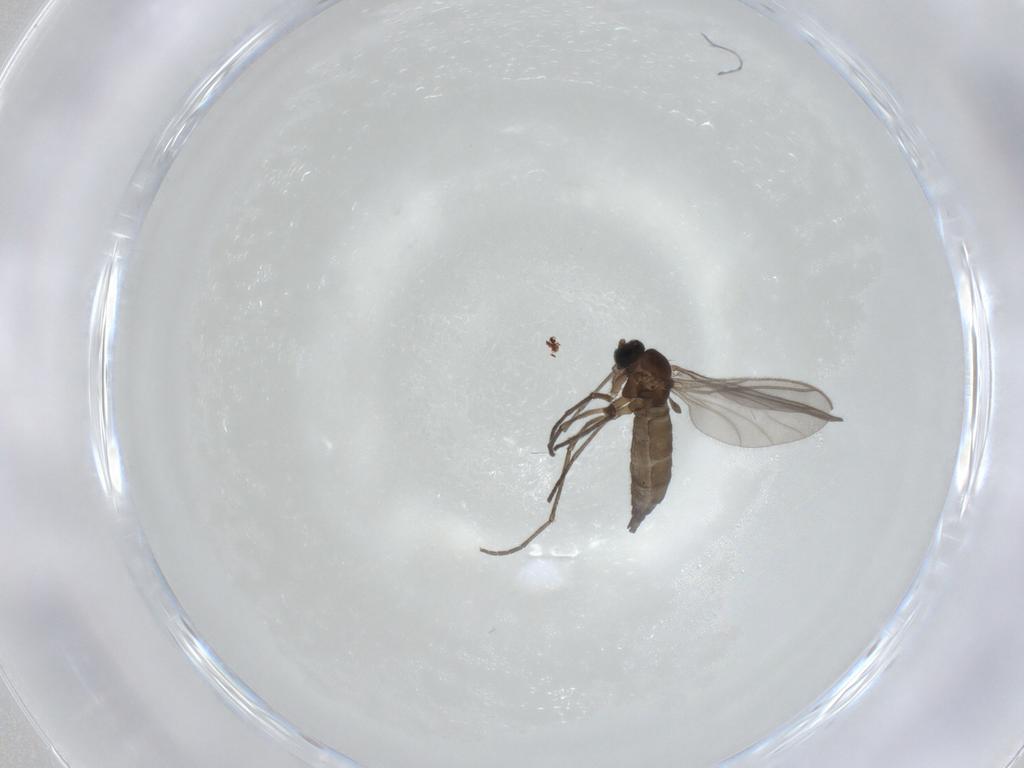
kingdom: Animalia
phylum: Arthropoda
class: Insecta
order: Diptera
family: Sciaridae
